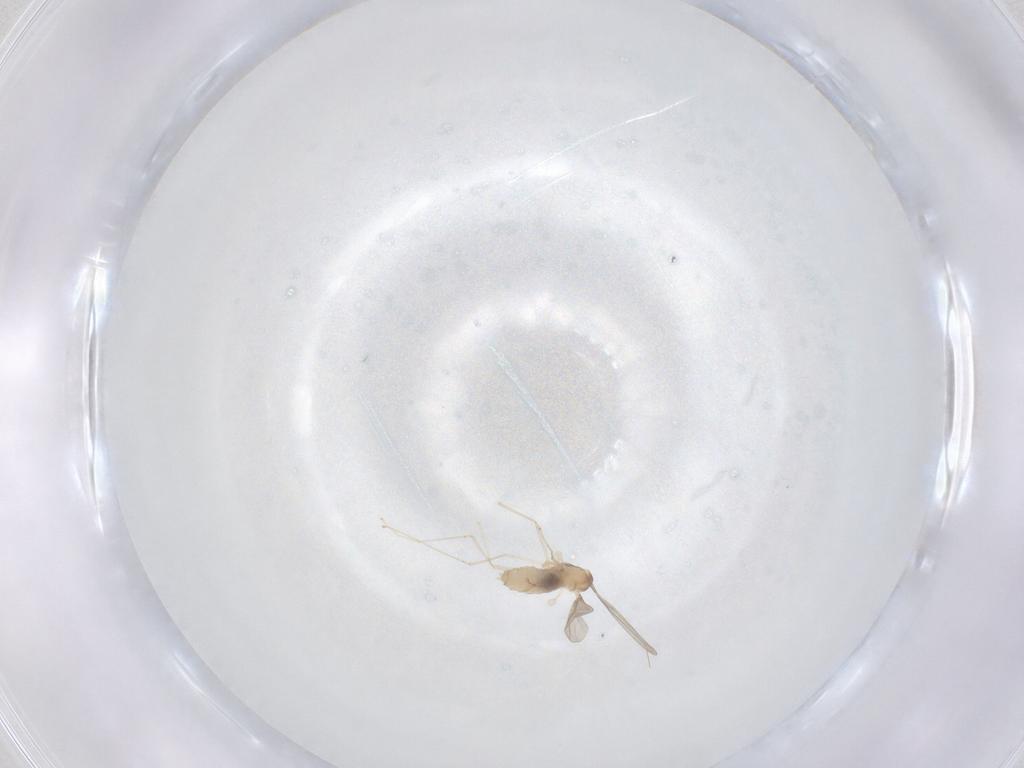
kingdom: Animalia
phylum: Arthropoda
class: Insecta
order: Diptera
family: Cecidomyiidae
